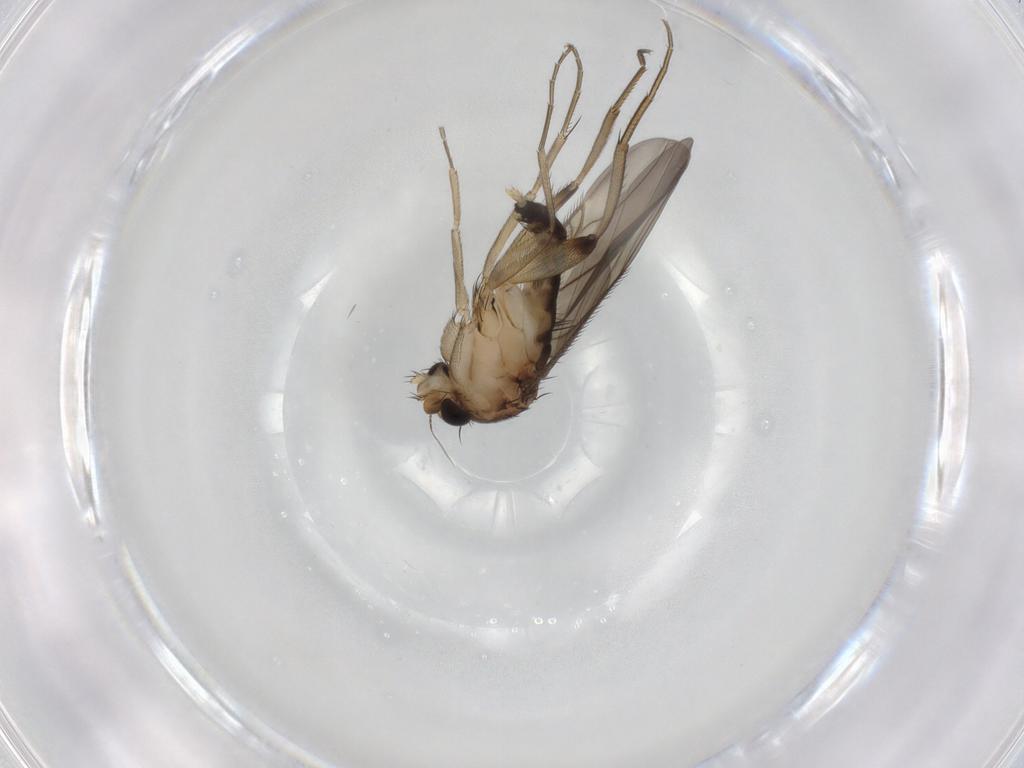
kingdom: Animalia
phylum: Arthropoda
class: Insecta
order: Diptera
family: Phoridae
